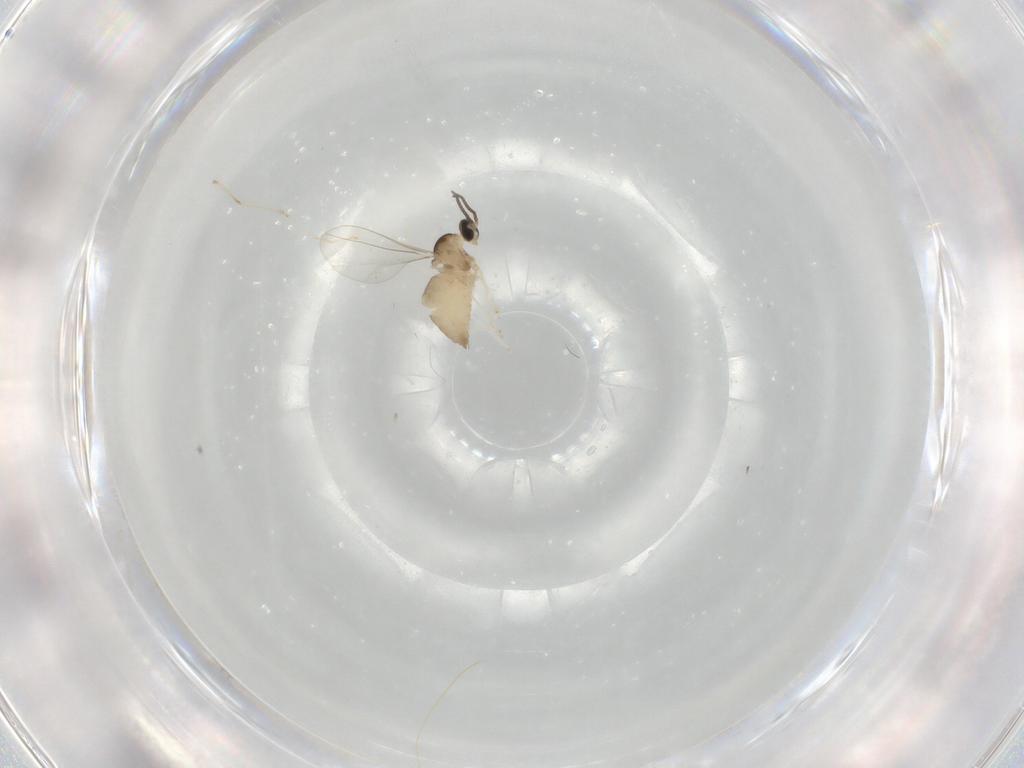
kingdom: Animalia
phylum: Arthropoda
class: Insecta
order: Diptera
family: Cecidomyiidae
